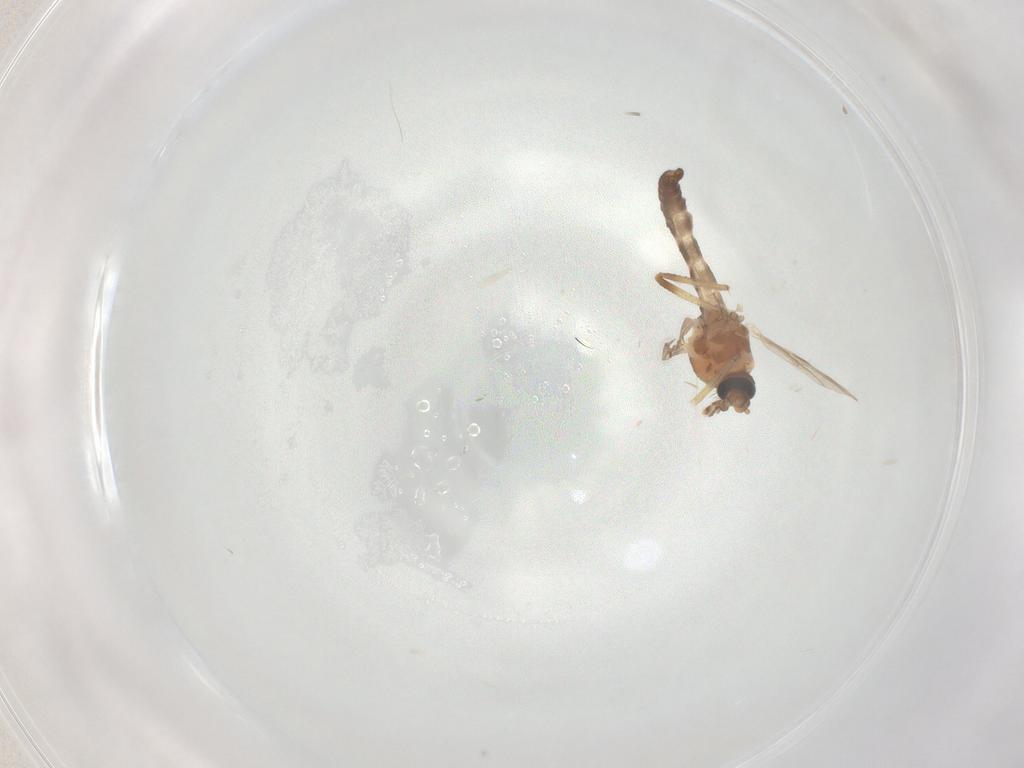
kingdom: Animalia
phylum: Arthropoda
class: Insecta
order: Diptera
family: Ceratopogonidae
